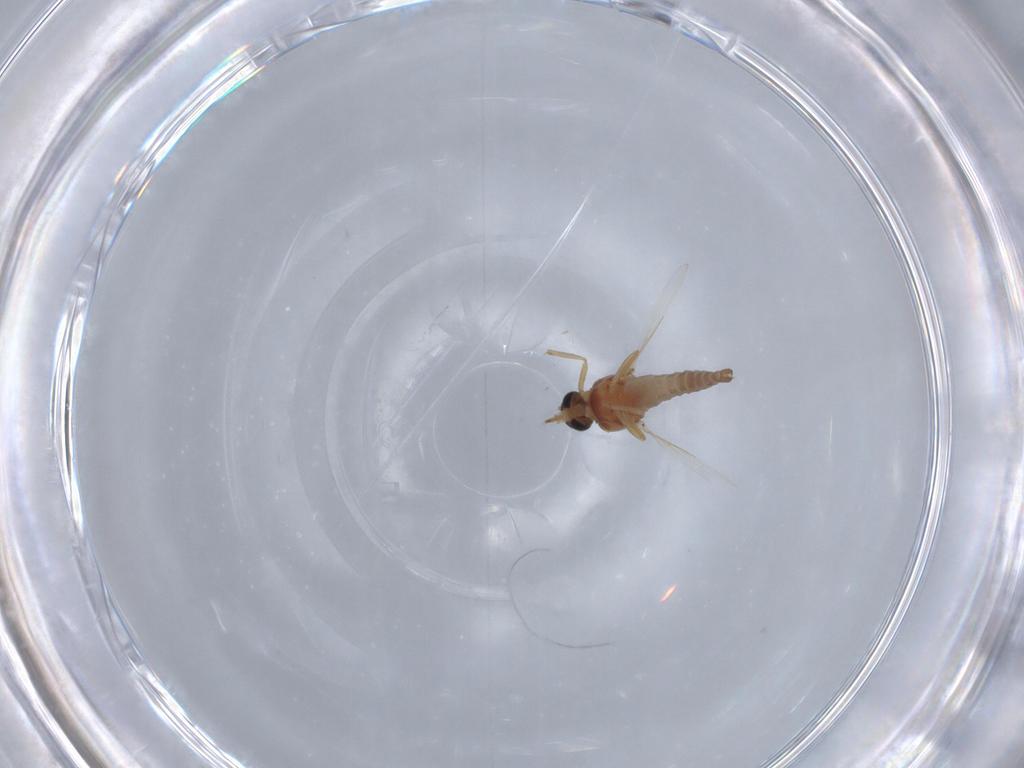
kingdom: Animalia
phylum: Arthropoda
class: Insecta
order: Diptera
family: Ceratopogonidae
